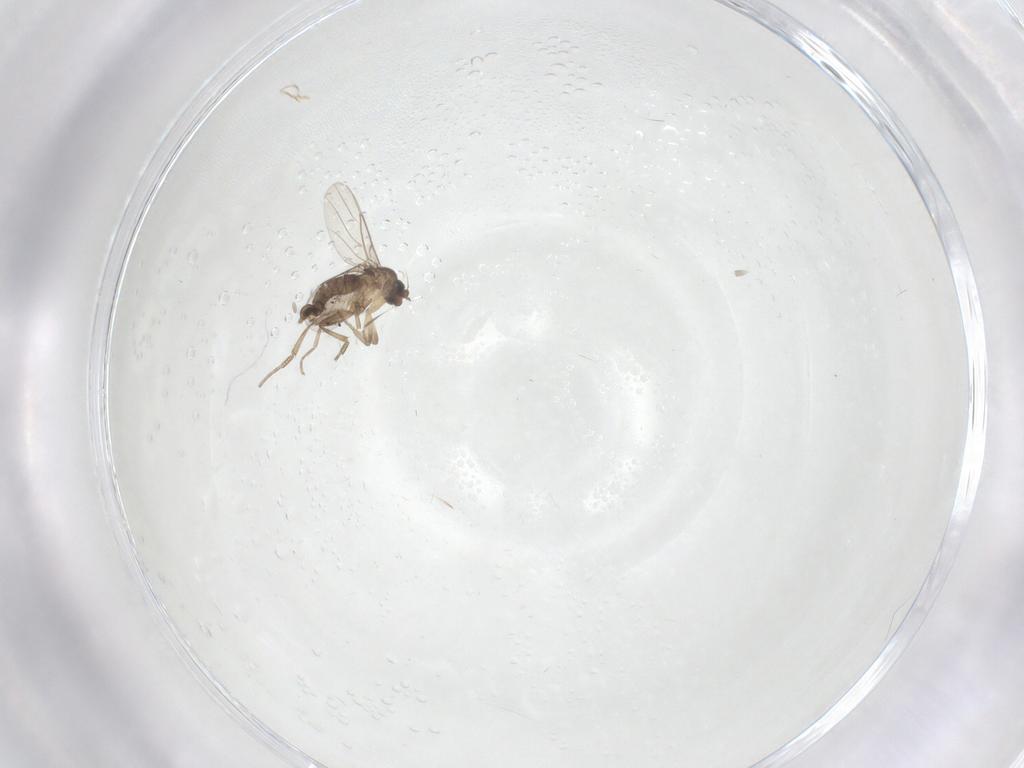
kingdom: Animalia
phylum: Arthropoda
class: Insecta
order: Diptera
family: Phoridae
